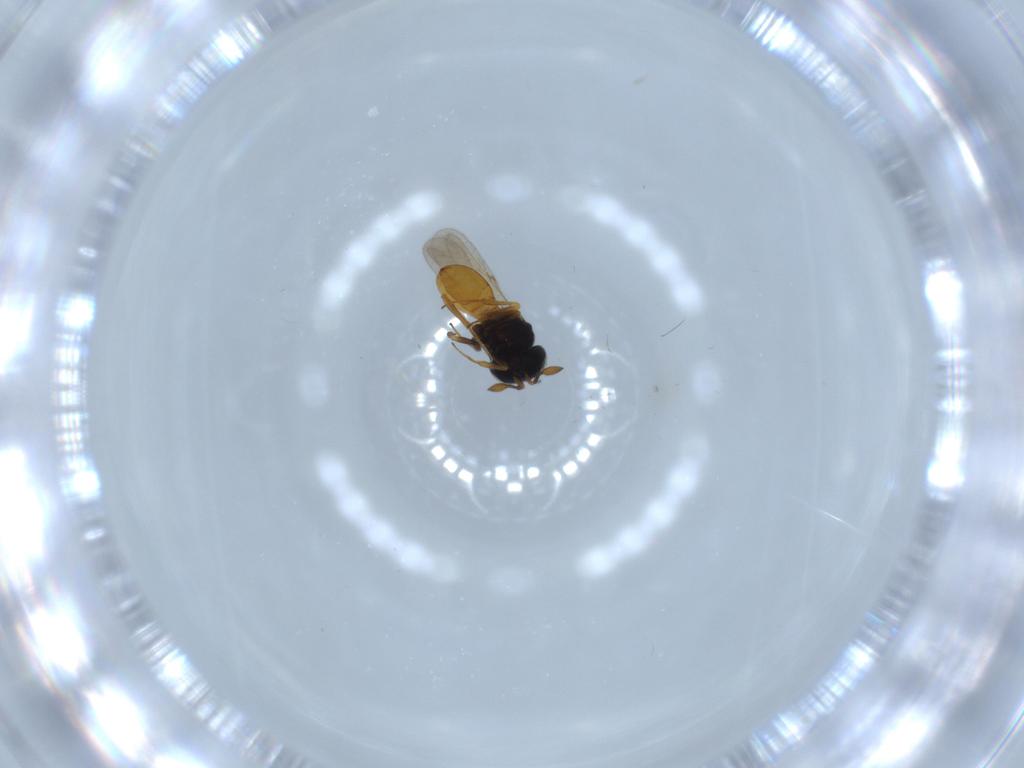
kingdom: Animalia
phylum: Arthropoda
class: Insecta
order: Hymenoptera
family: Scelionidae
